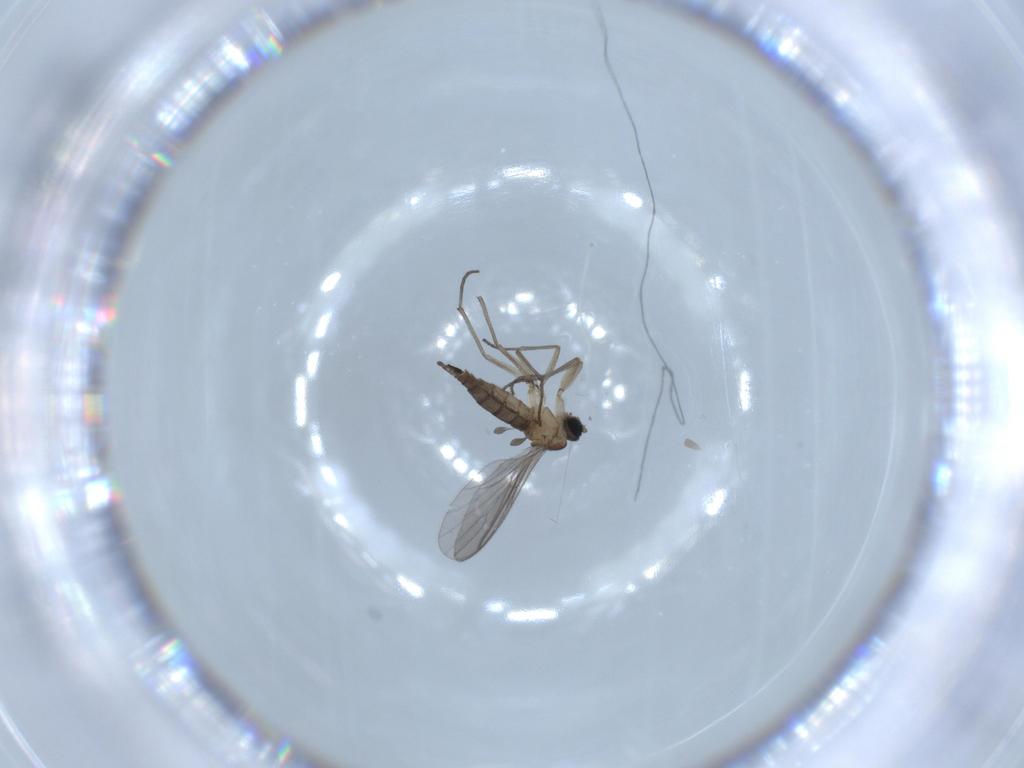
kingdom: Animalia
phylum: Arthropoda
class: Insecta
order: Diptera
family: Sciaridae
